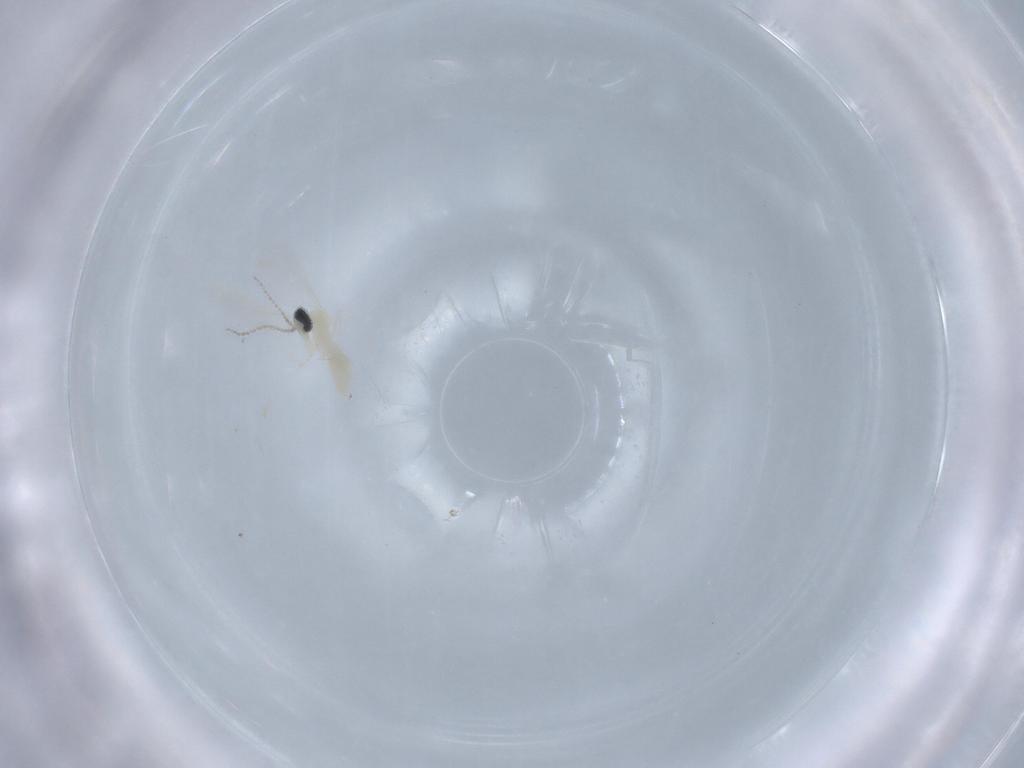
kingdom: Animalia
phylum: Arthropoda
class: Insecta
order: Diptera
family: Cecidomyiidae
